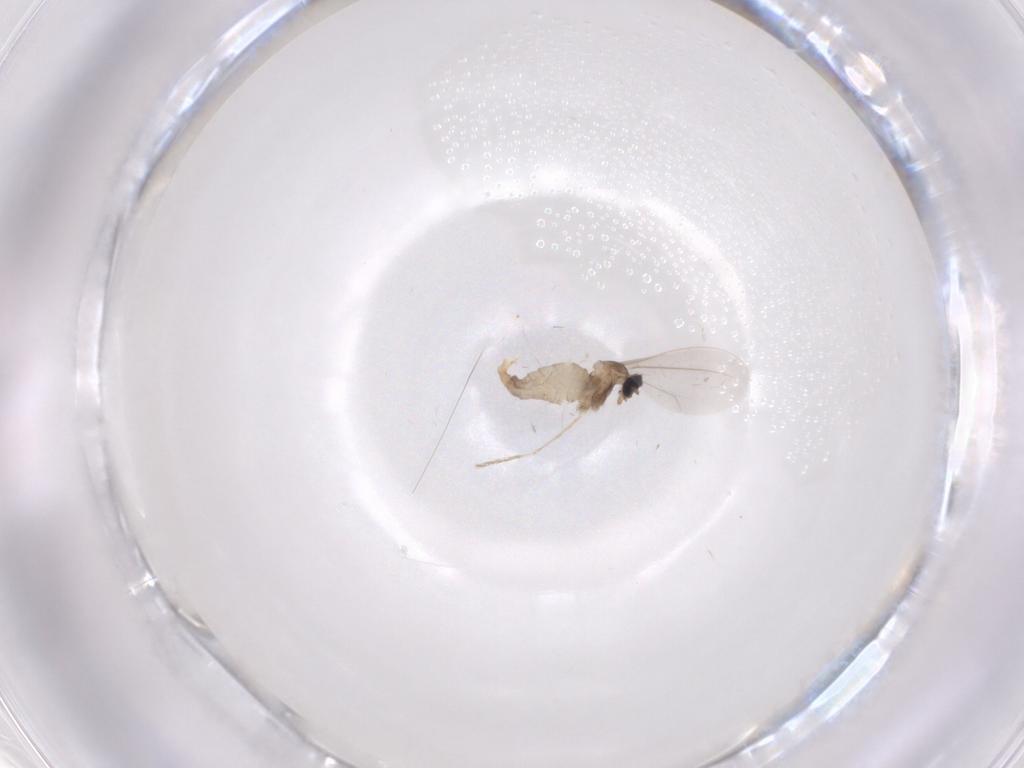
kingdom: Animalia
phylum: Arthropoda
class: Insecta
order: Diptera
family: Cecidomyiidae
